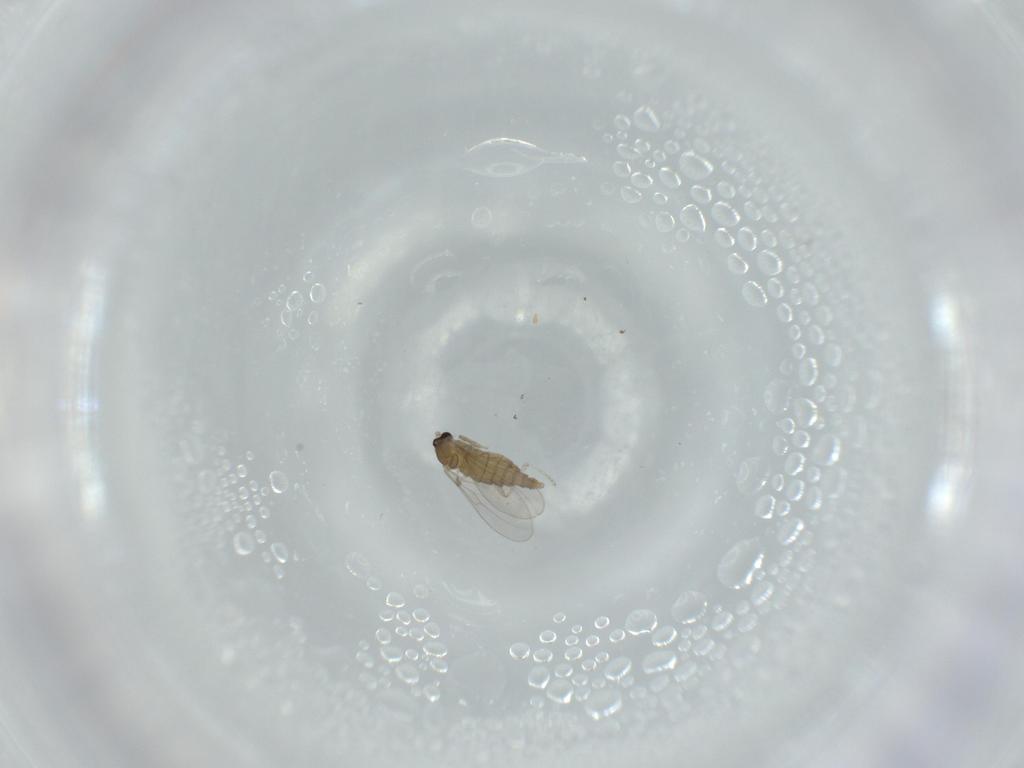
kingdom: Animalia
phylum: Arthropoda
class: Insecta
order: Diptera
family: Cecidomyiidae
